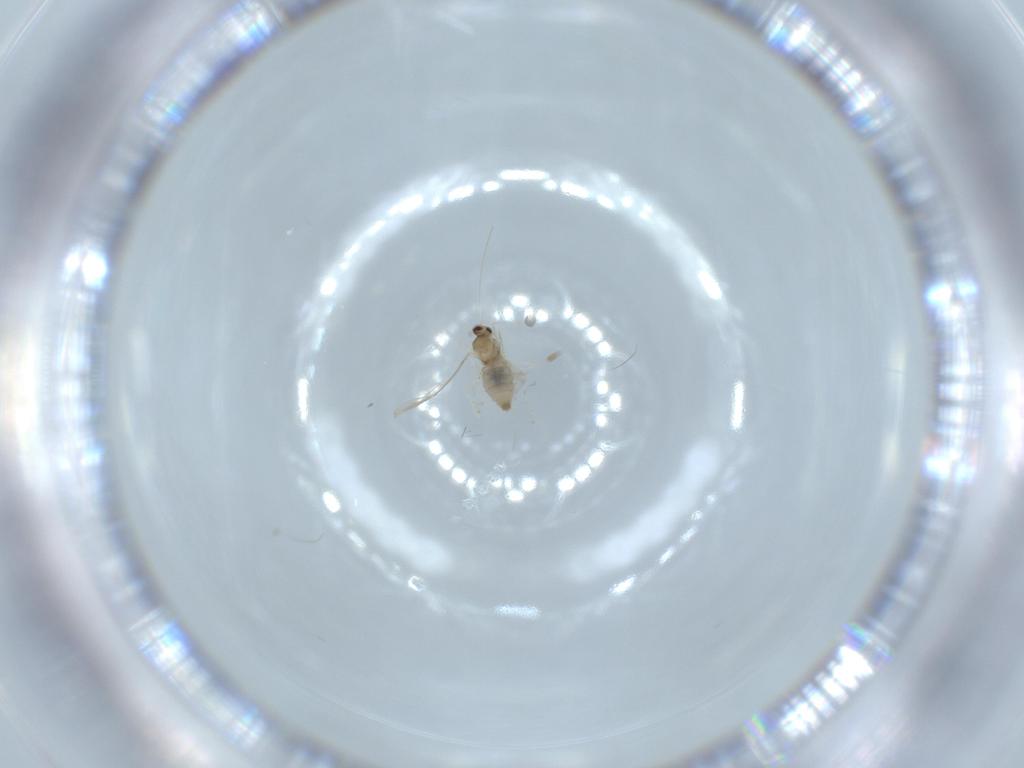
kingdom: Animalia
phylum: Arthropoda
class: Insecta
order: Diptera
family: Cecidomyiidae
